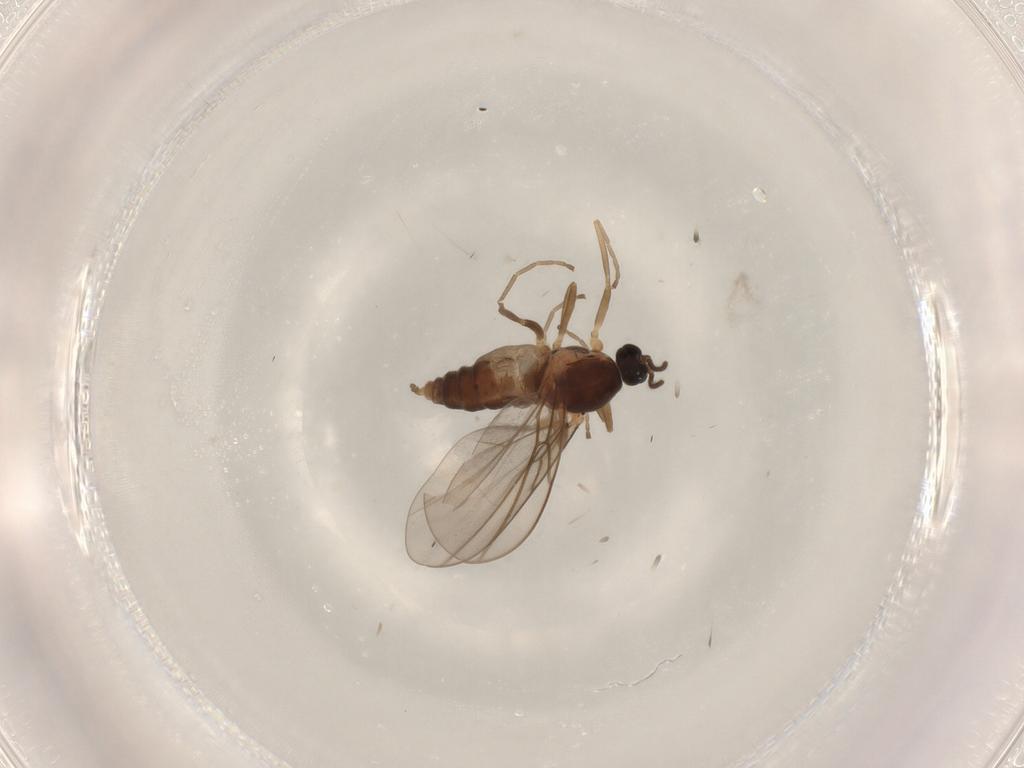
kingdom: Animalia
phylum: Arthropoda
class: Insecta
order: Diptera
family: Cecidomyiidae
